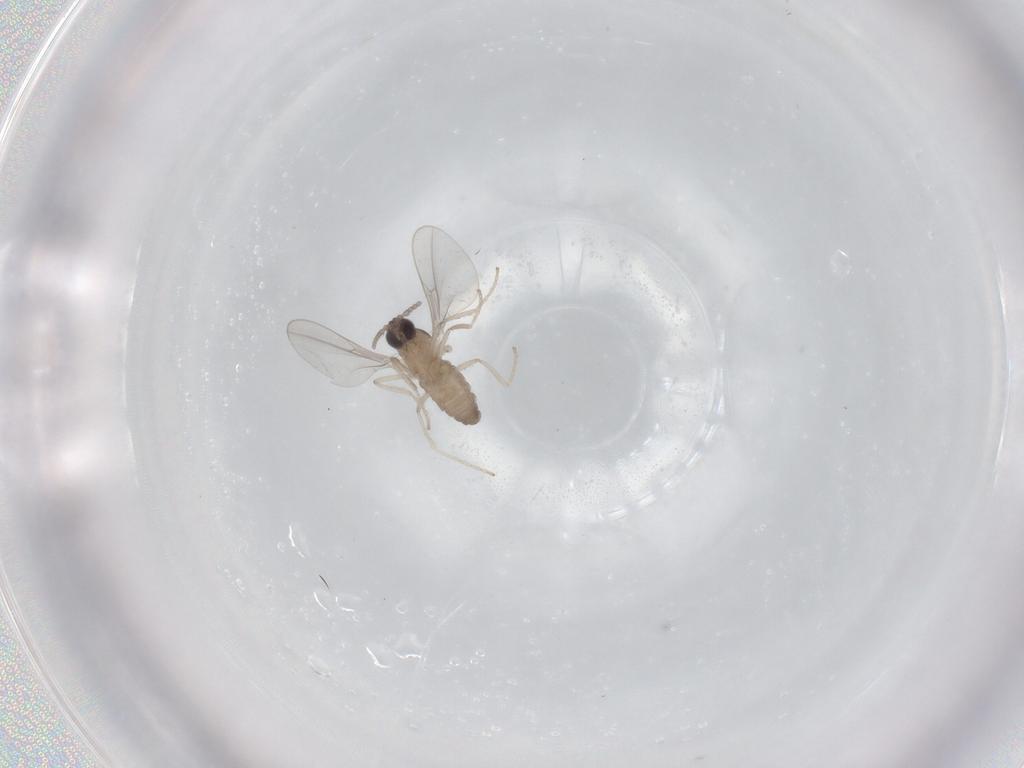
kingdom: Animalia
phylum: Arthropoda
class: Insecta
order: Diptera
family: Cecidomyiidae
